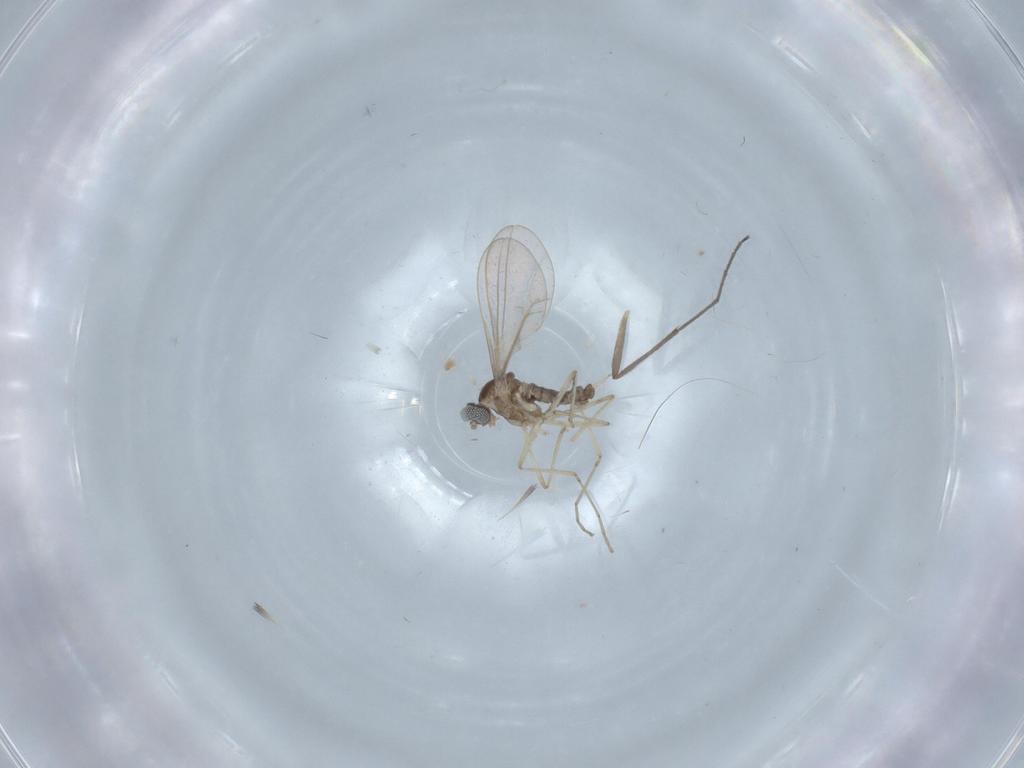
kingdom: Animalia
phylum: Arthropoda
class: Insecta
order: Diptera
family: Cecidomyiidae
